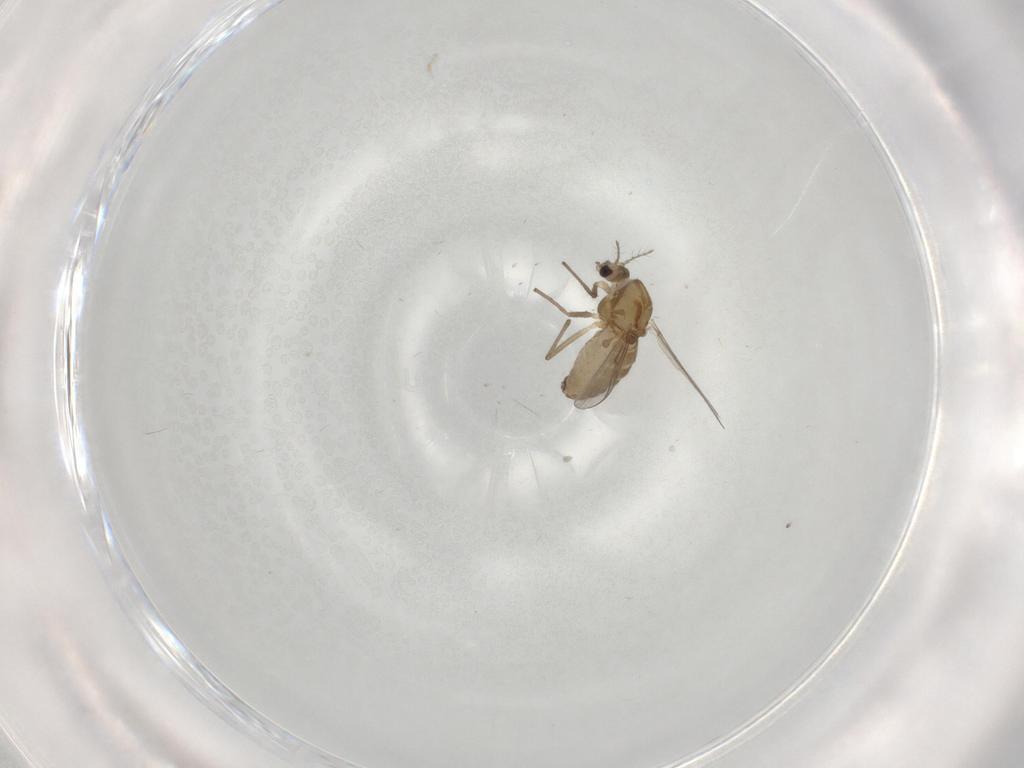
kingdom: Animalia
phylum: Arthropoda
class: Insecta
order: Diptera
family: Chironomidae
